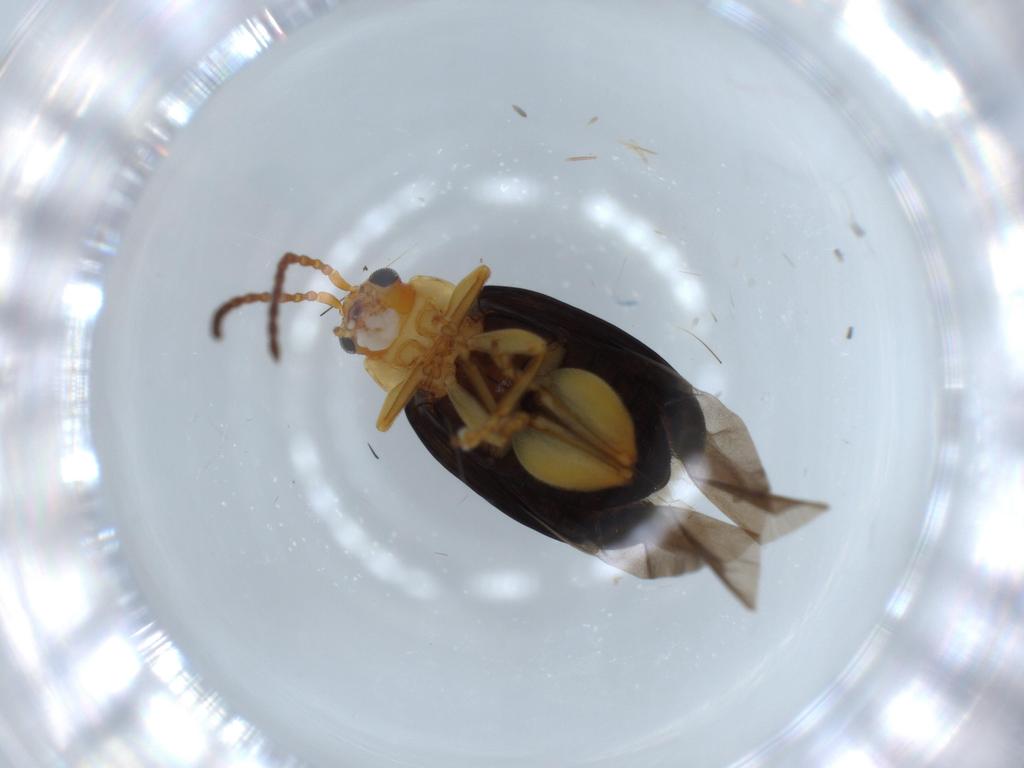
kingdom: Animalia
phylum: Arthropoda
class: Insecta
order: Coleoptera
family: Chrysomelidae
